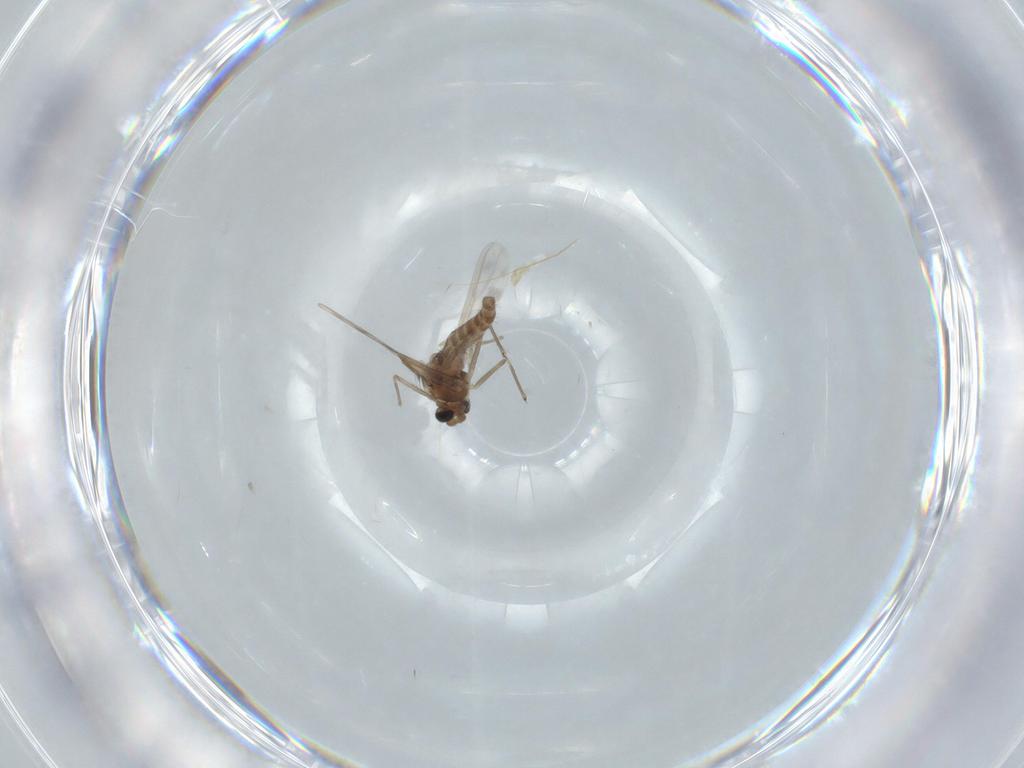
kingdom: Animalia
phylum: Arthropoda
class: Insecta
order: Diptera
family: Chironomidae
